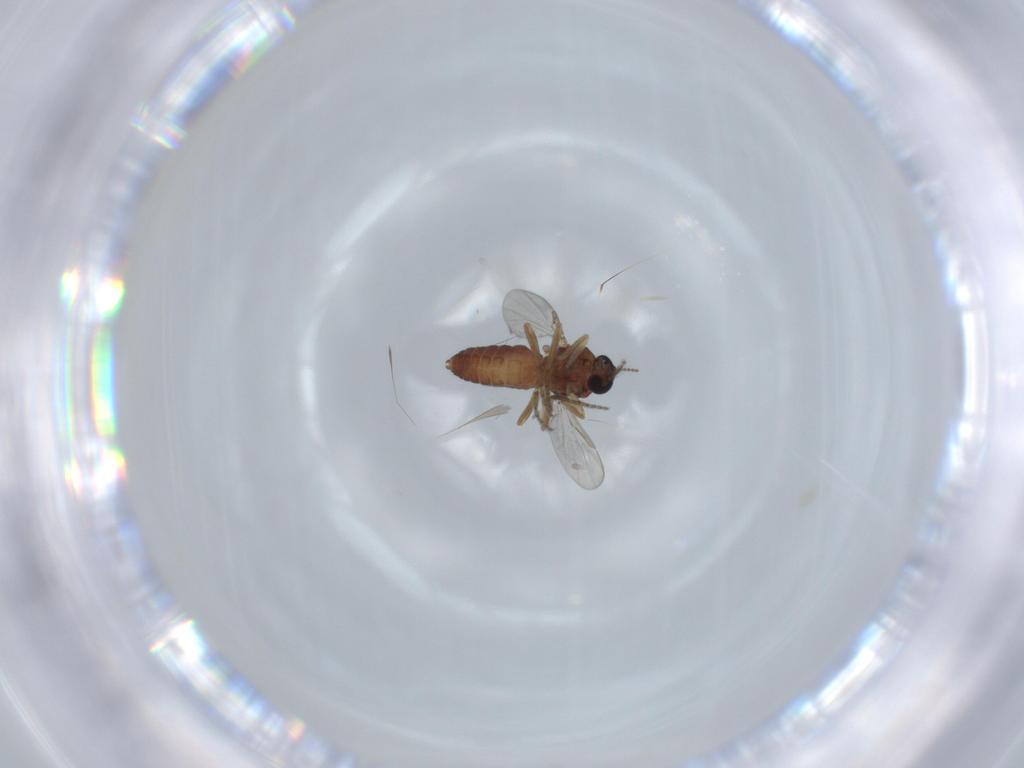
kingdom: Animalia
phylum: Arthropoda
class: Insecta
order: Diptera
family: Ceratopogonidae
